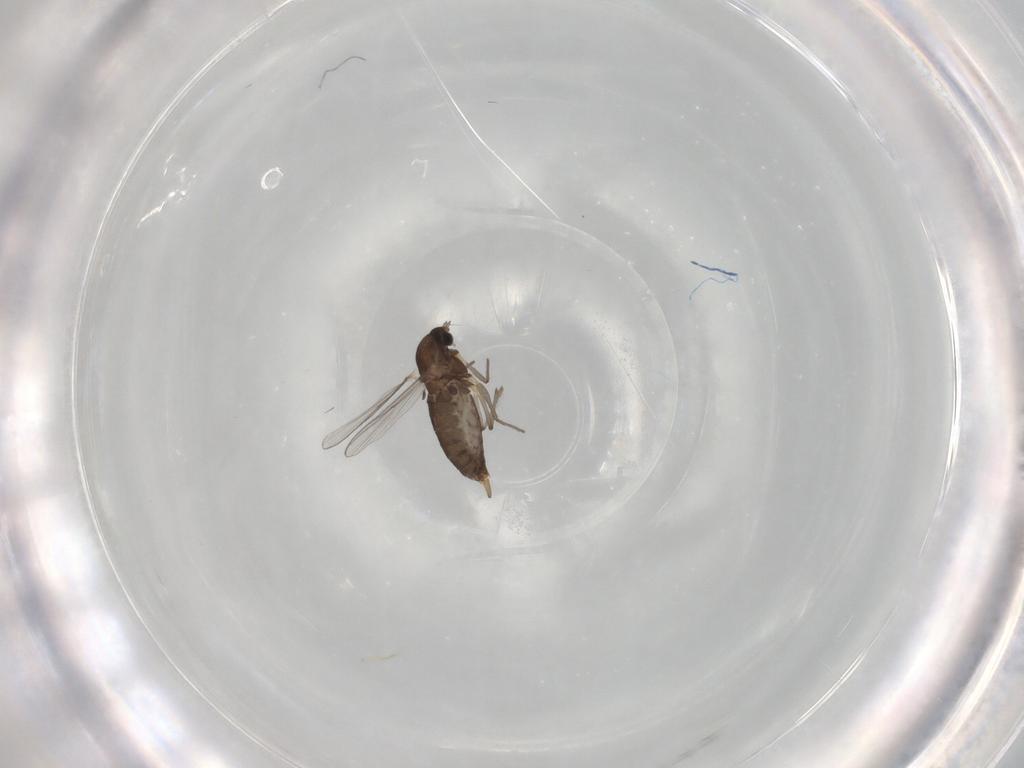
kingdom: Animalia
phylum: Arthropoda
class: Insecta
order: Diptera
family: Chironomidae
